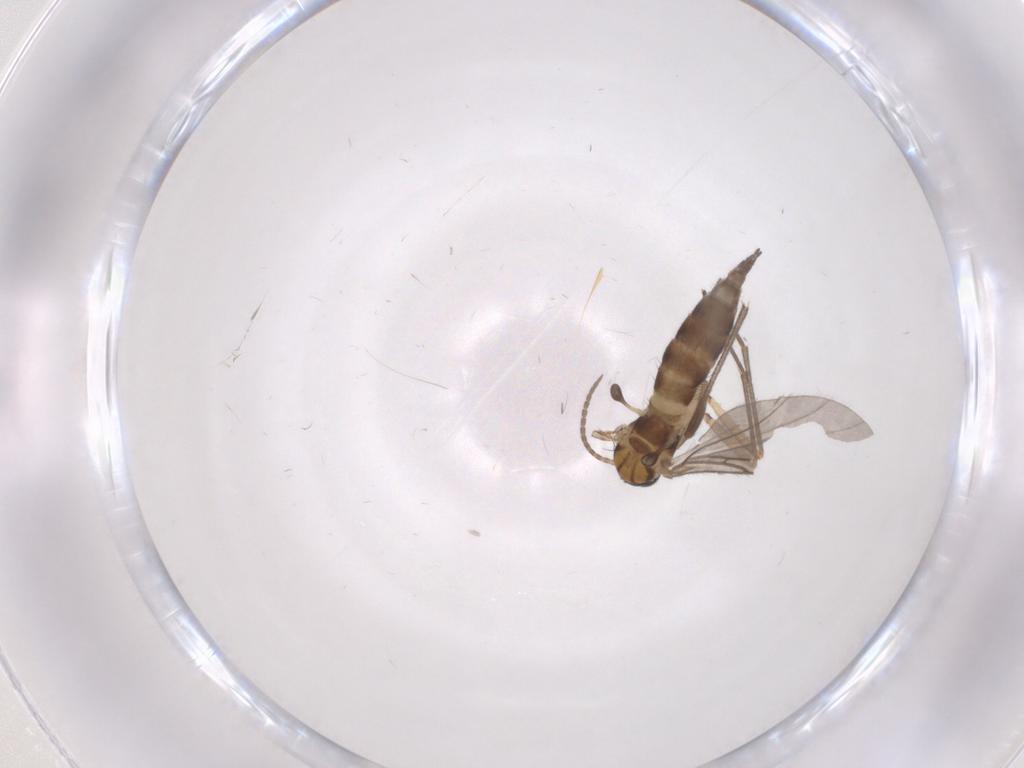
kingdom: Animalia
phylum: Arthropoda
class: Insecta
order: Diptera
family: Sciaridae
